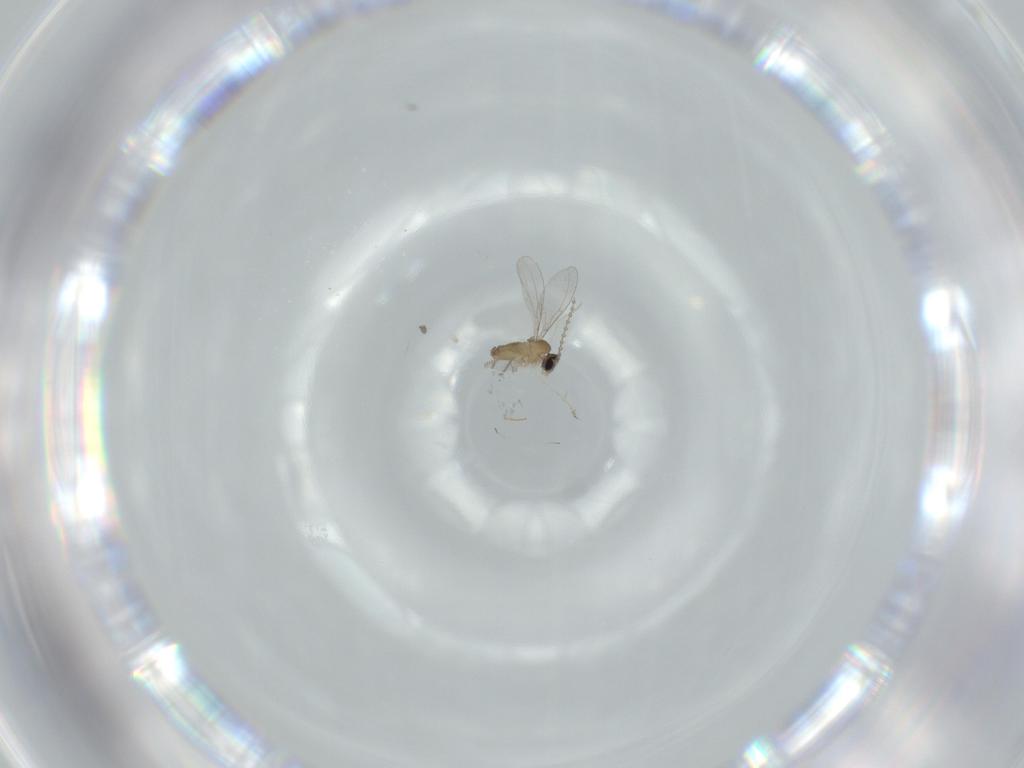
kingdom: Animalia
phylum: Arthropoda
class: Insecta
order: Diptera
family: Cecidomyiidae
